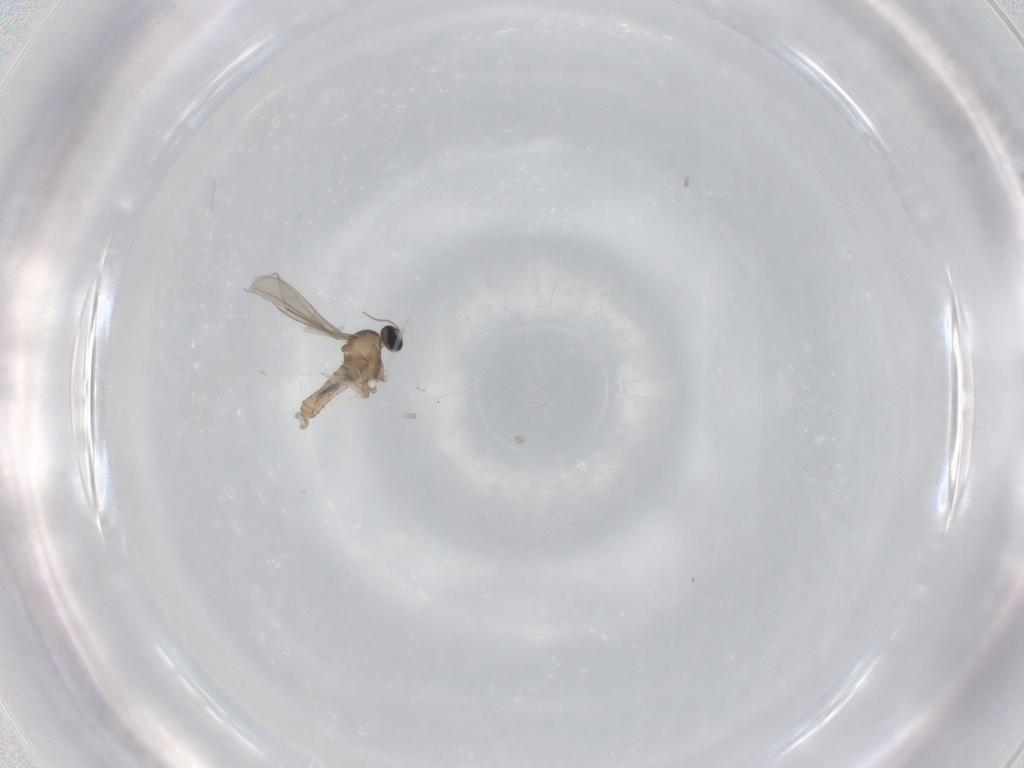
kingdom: Animalia
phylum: Arthropoda
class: Insecta
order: Diptera
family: Cecidomyiidae
